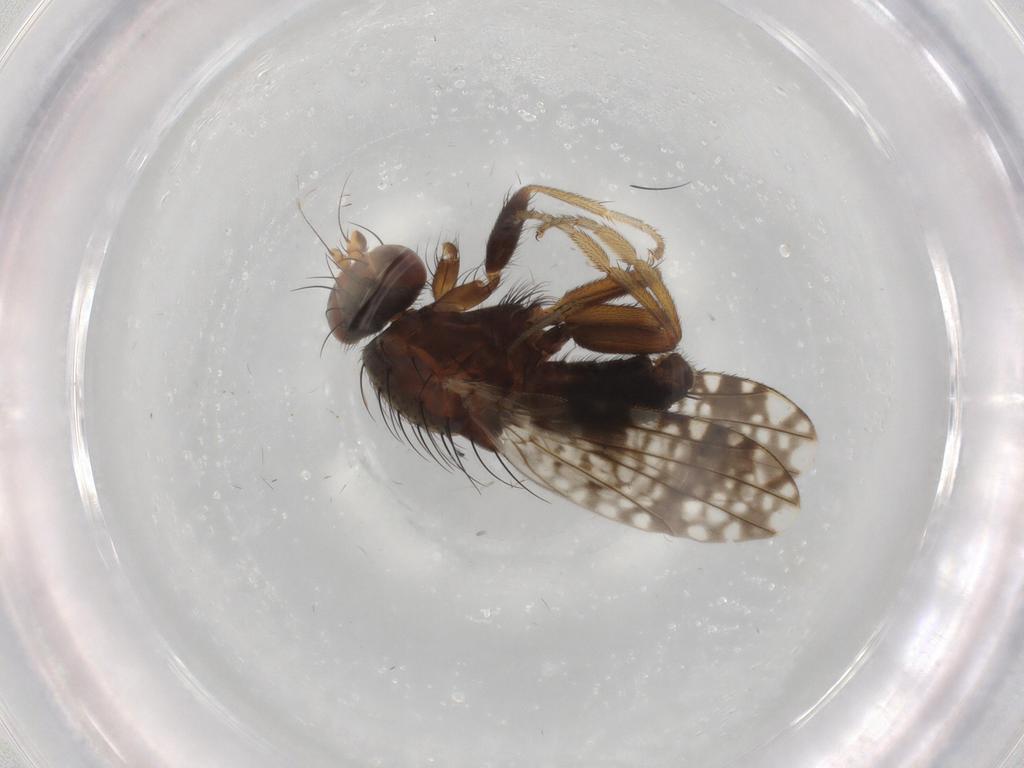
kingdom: Animalia
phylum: Arthropoda
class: Insecta
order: Diptera
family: Tephritidae
